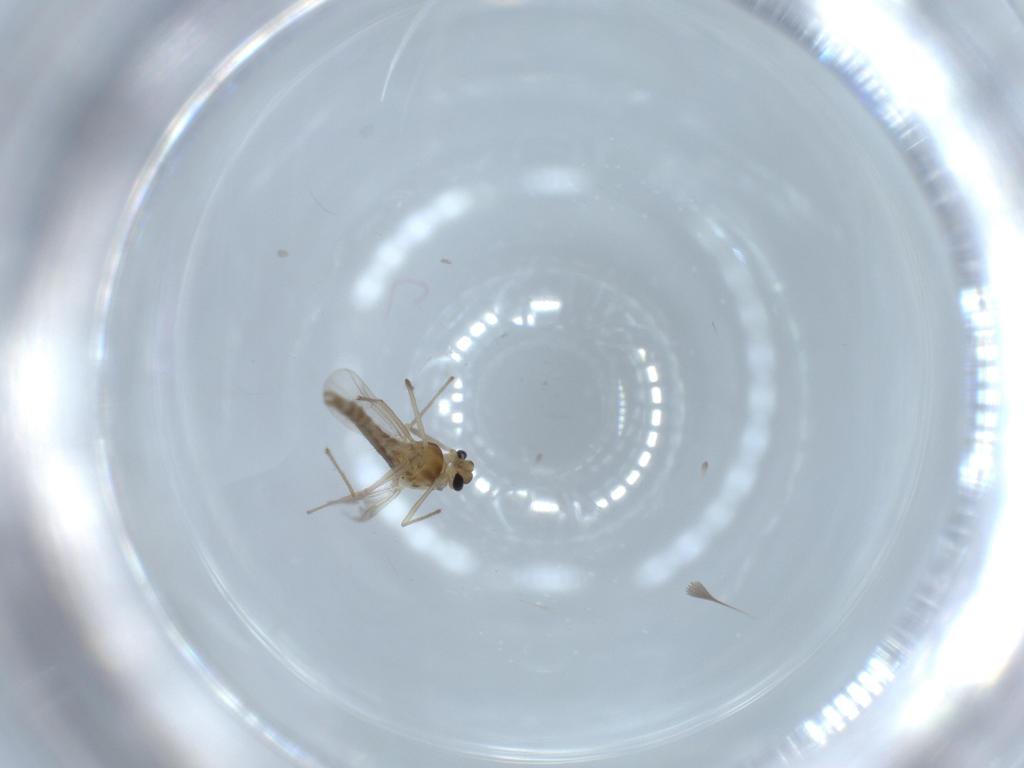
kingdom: Animalia
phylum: Arthropoda
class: Insecta
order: Diptera
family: Chironomidae
